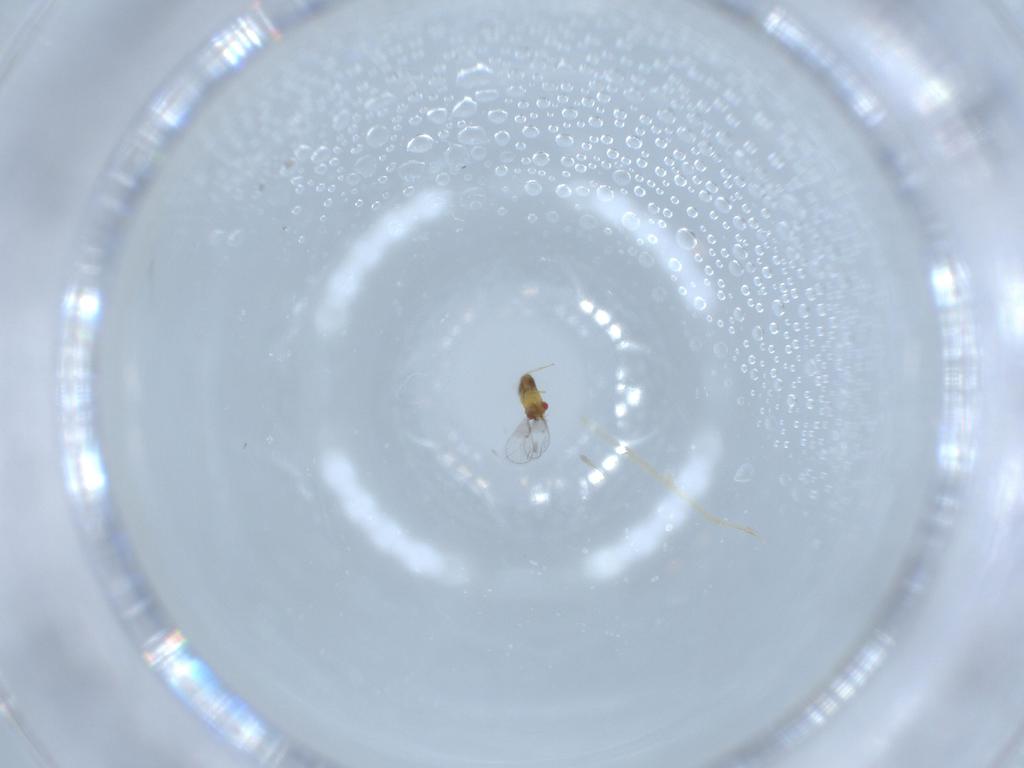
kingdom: Animalia
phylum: Arthropoda
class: Insecta
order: Hymenoptera
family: Platygastridae
